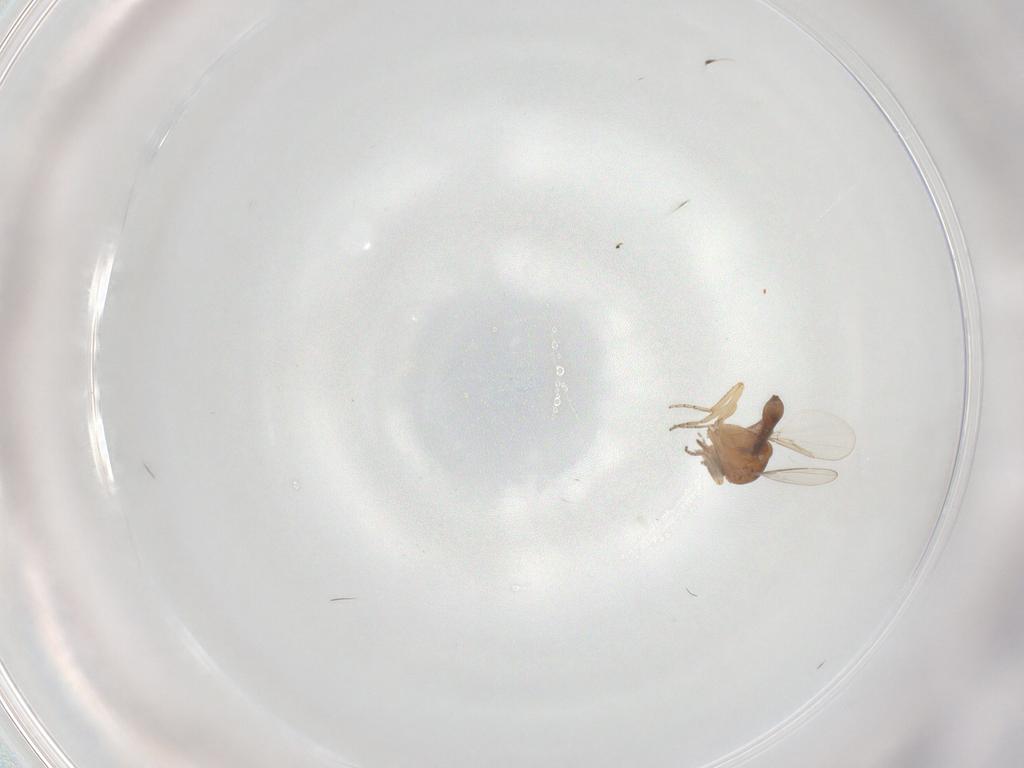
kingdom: Animalia
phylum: Arthropoda
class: Insecta
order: Diptera
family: Ceratopogonidae
